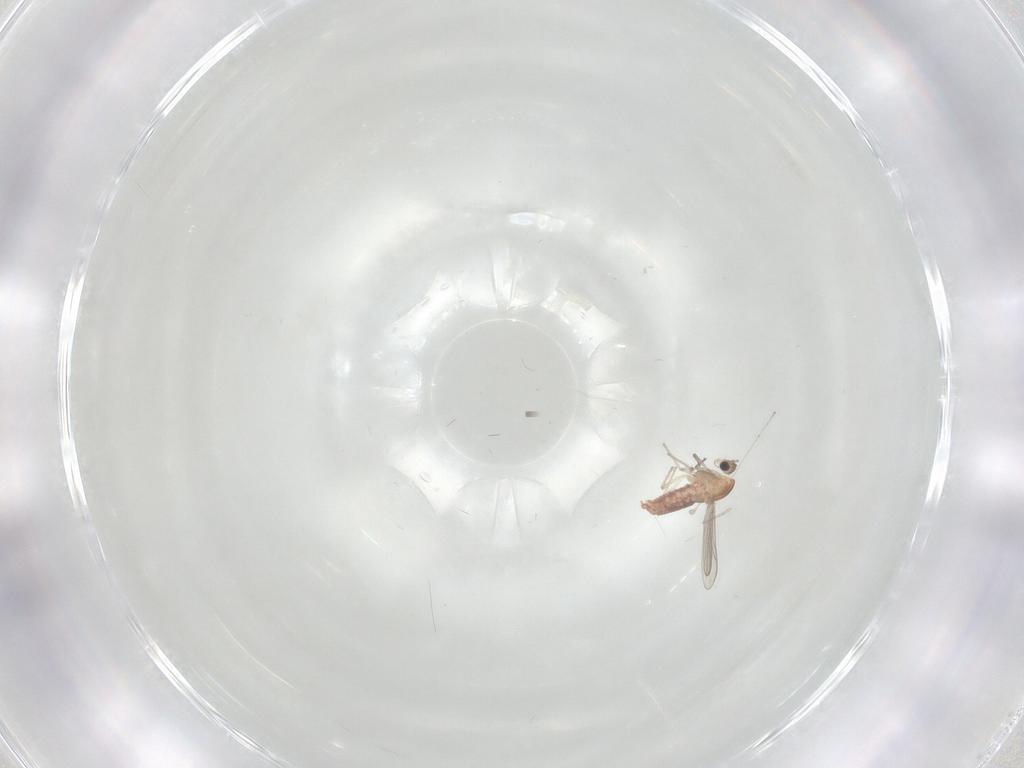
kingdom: Animalia
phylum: Arthropoda
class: Insecta
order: Diptera
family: Chironomidae
